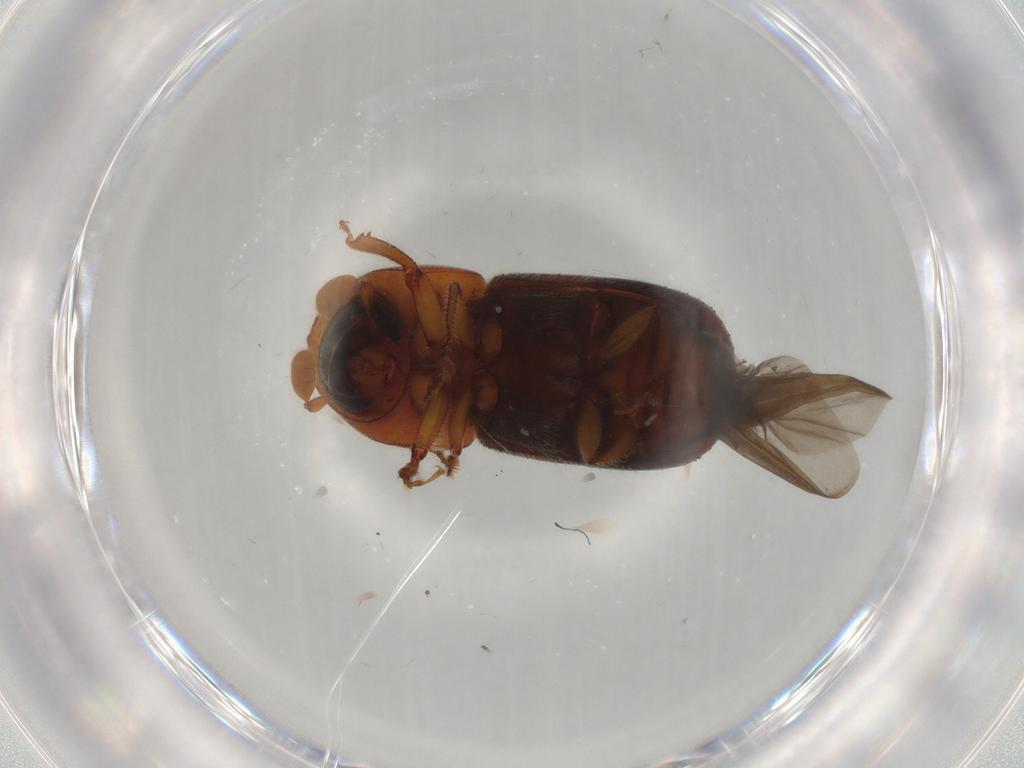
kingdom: Animalia
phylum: Arthropoda
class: Insecta
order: Coleoptera
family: Curculionidae
